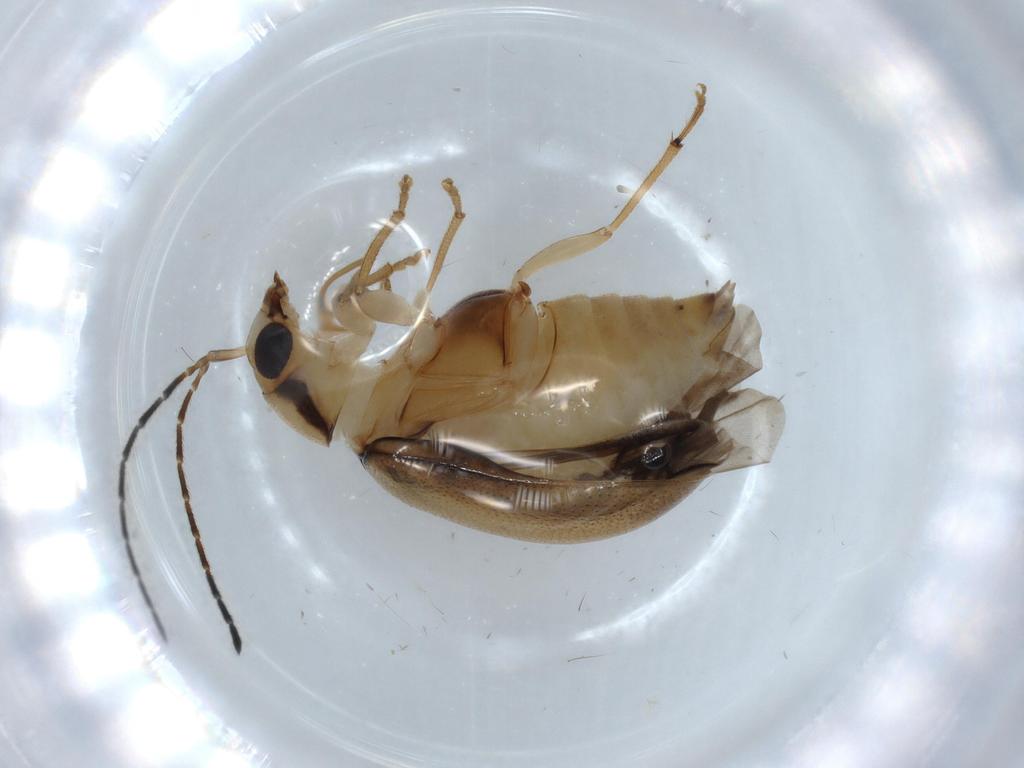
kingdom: Animalia
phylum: Arthropoda
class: Insecta
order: Coleoptera
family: Chrysomelidae
